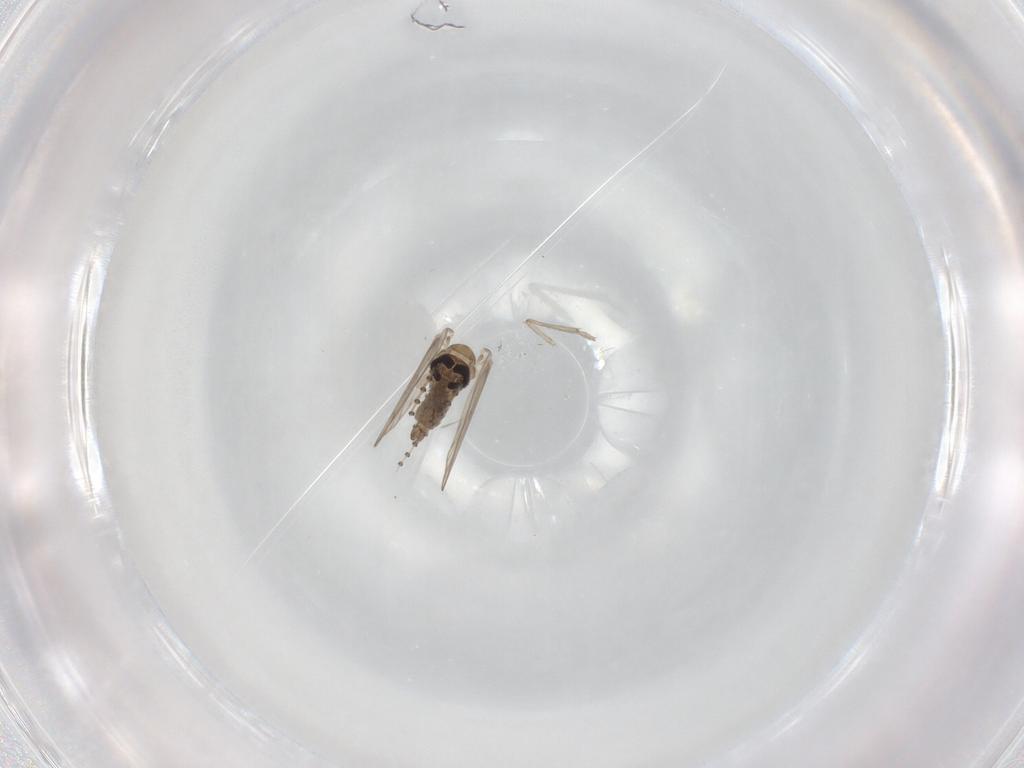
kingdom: Animalia
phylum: Arthropoda
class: Insecta
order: Diptera
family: Psychodidae
